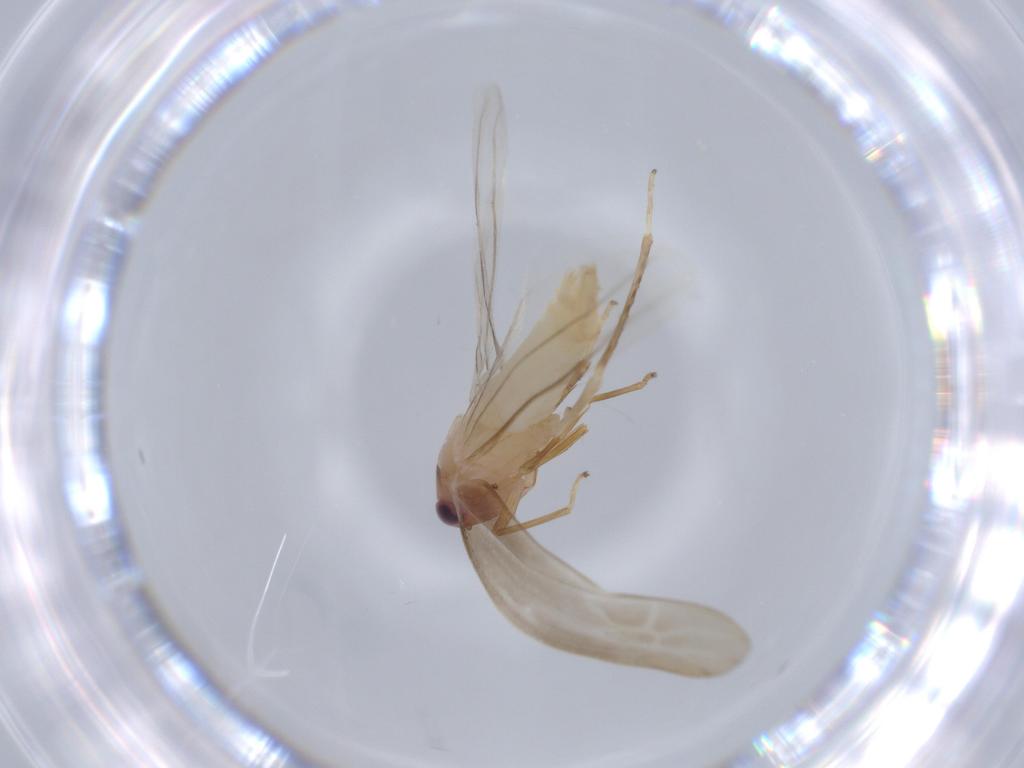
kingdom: Animalia
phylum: Arthropoda
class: Insecta
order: Hemiptera
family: Cicadellidae
